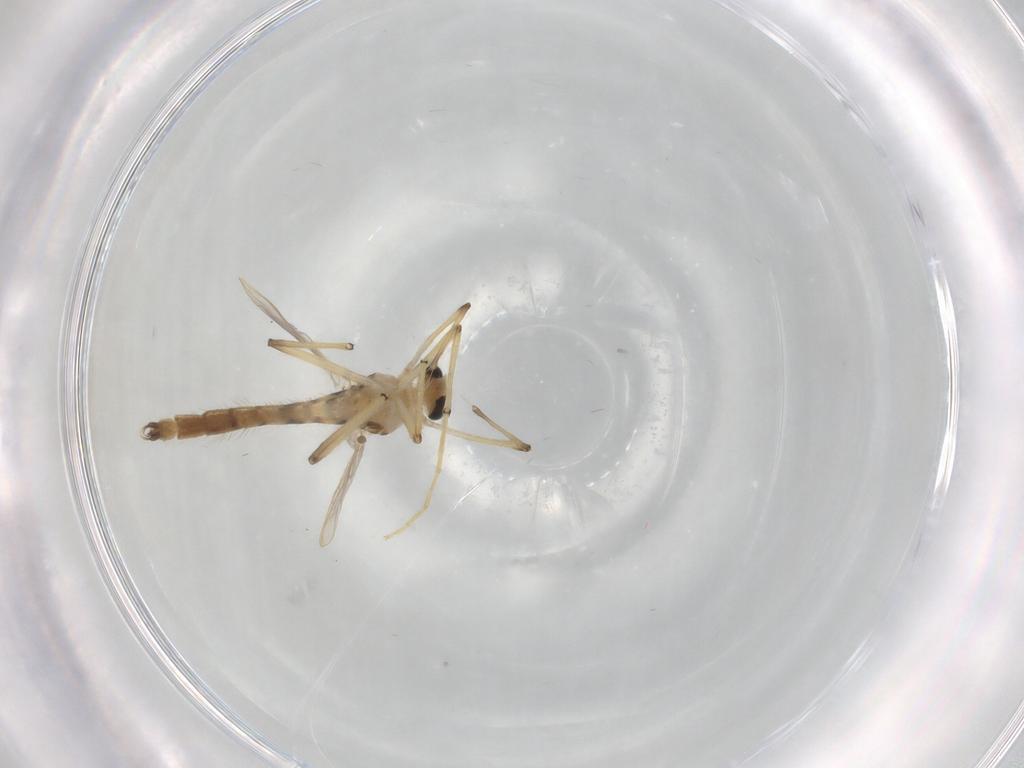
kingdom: Animalia
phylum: Arthropoda
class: Insecta
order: Diptera
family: Chironomidae
